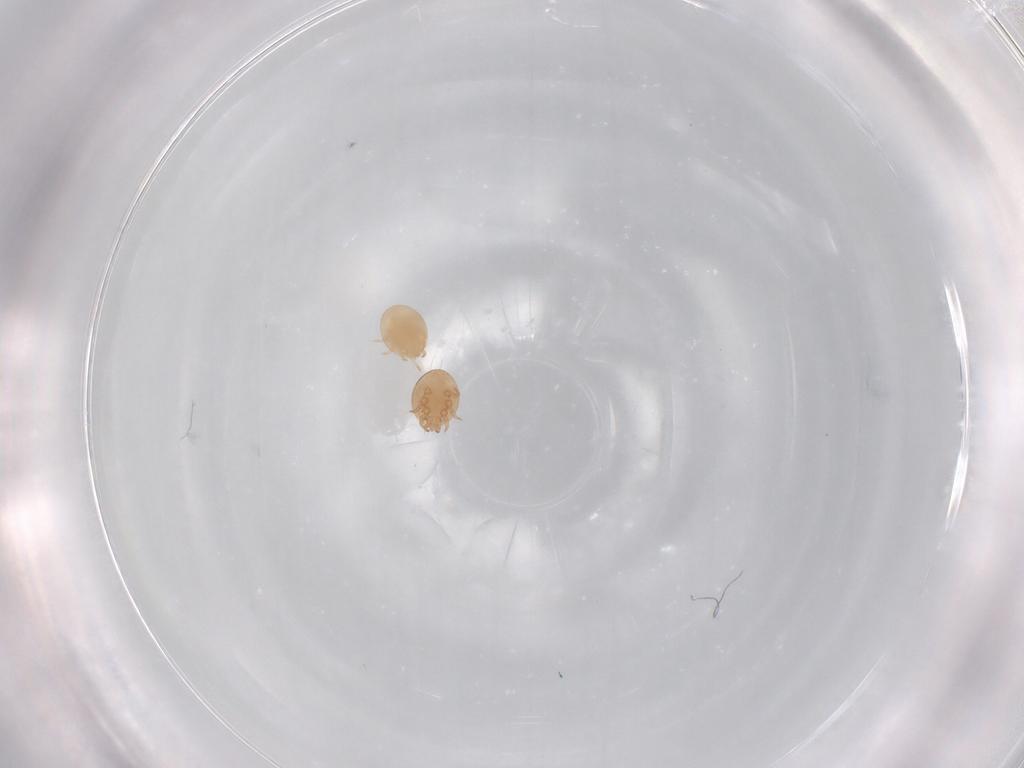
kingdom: Animalia
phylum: Arthropoda
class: Arachnida
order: Mesostigmata
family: Trematuridae
